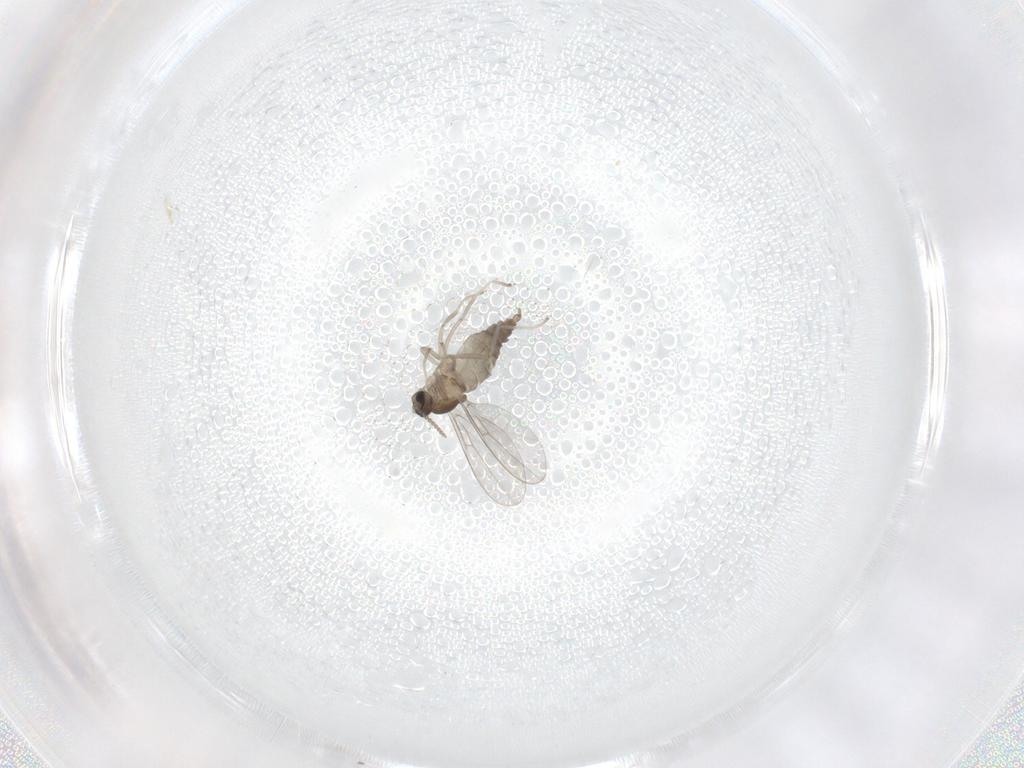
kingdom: Animalia
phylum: Arthropoda
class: Insecta
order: Diptera
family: Cecidomyiidae
